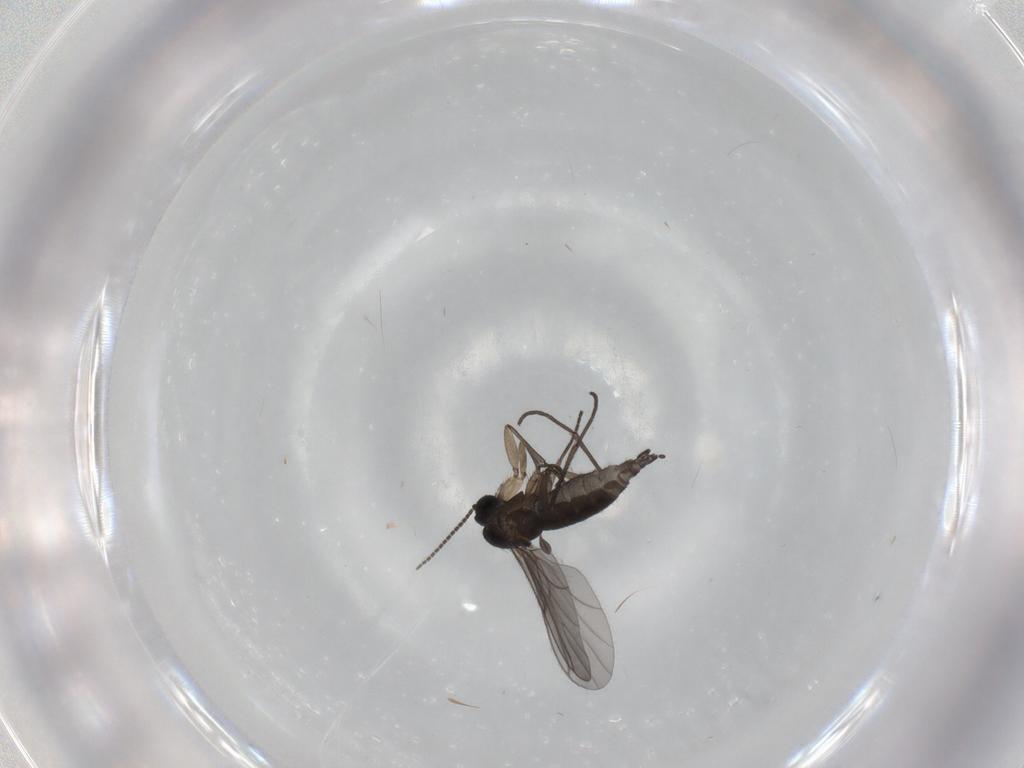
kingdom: Animalia
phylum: Arthropoda
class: Insecta
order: Diptera
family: Sciaridae
